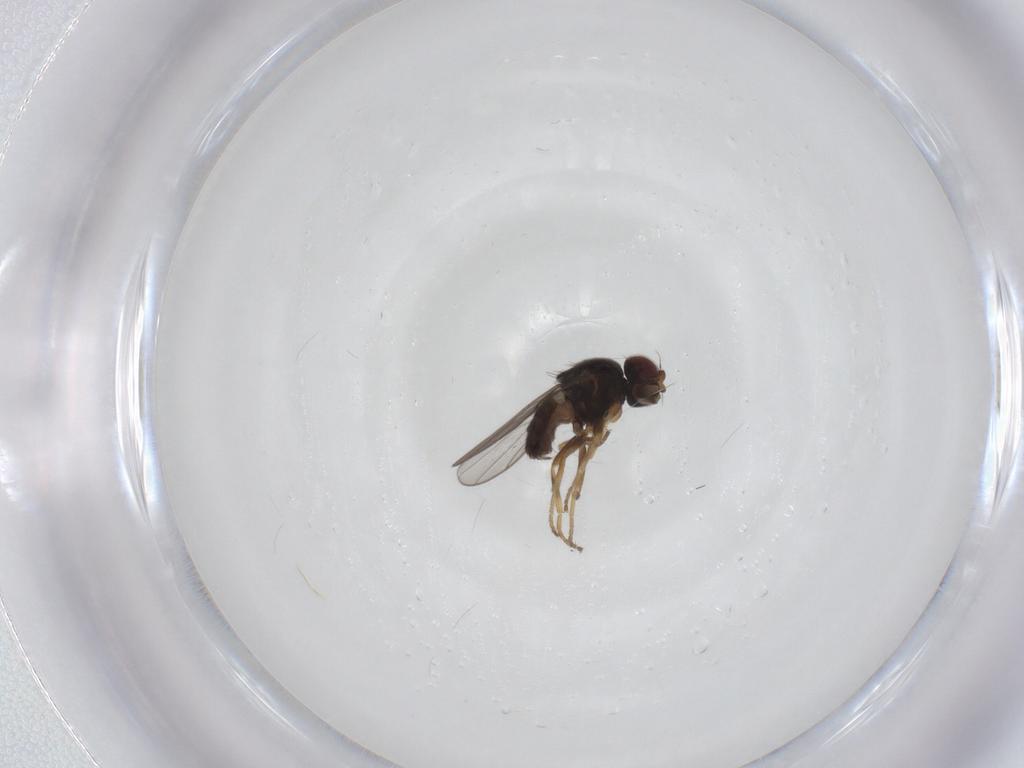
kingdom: Animalia
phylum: Arthropoda
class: Insecta
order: Diptera
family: Chloropidae
